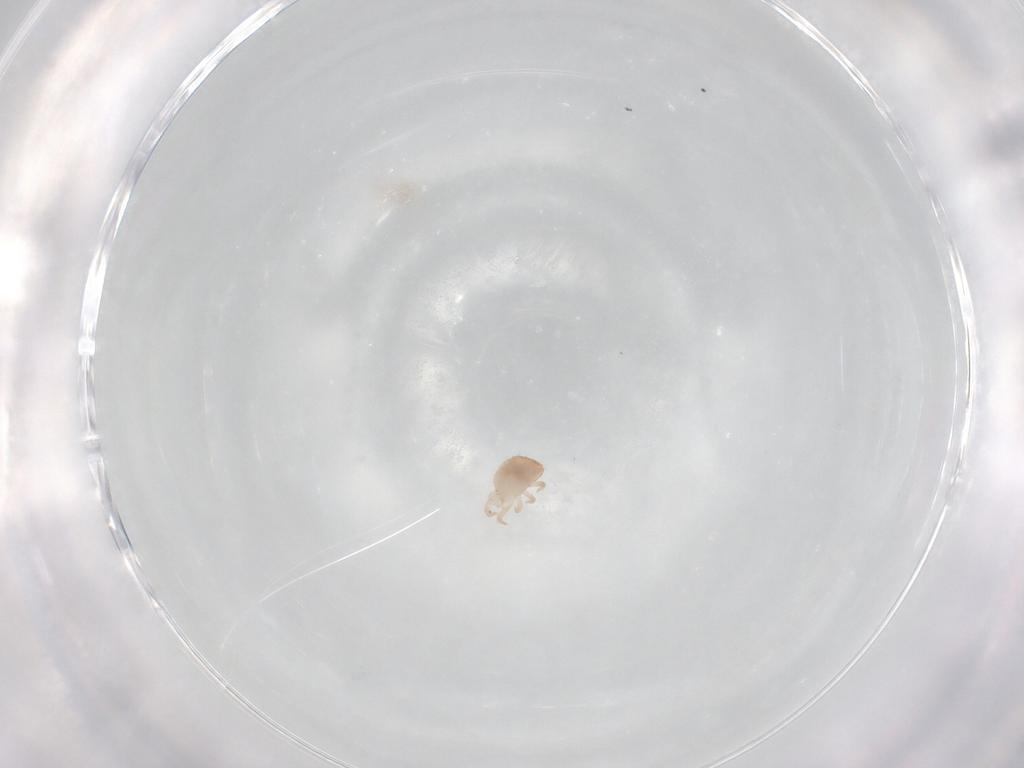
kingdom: Animalia
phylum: Arthropoda
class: Arachnida
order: Mesostigmata
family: Zerconidae
